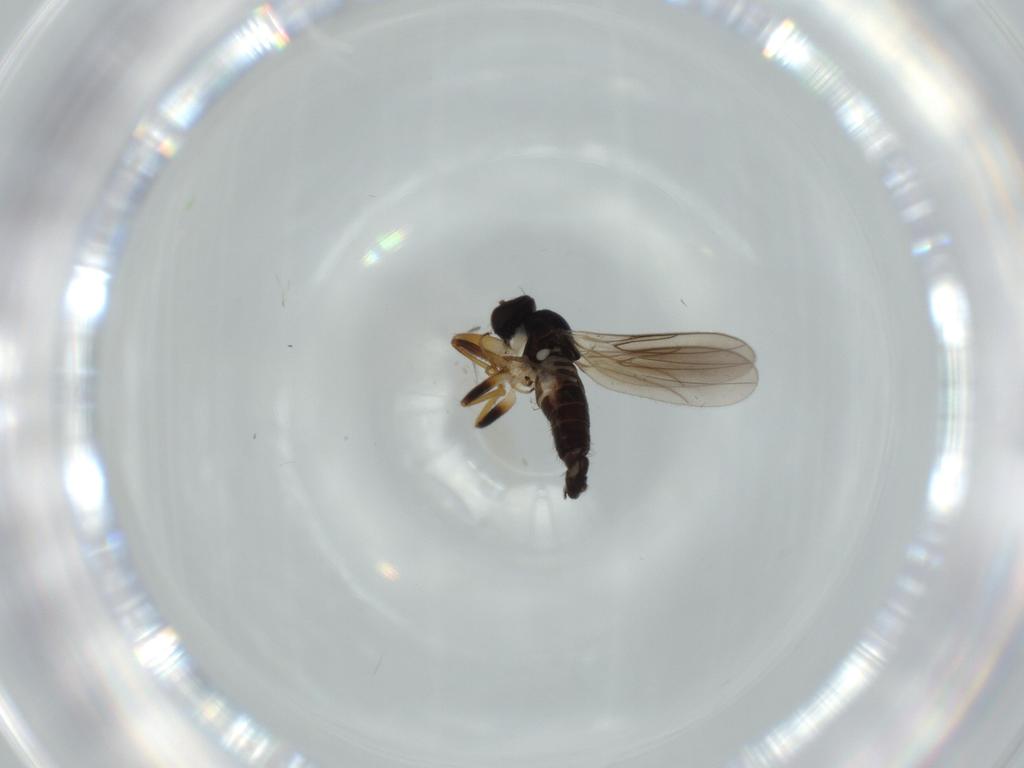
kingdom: Animalia
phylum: Arthropoda
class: Insecta
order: Diptera
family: Hybotidae
